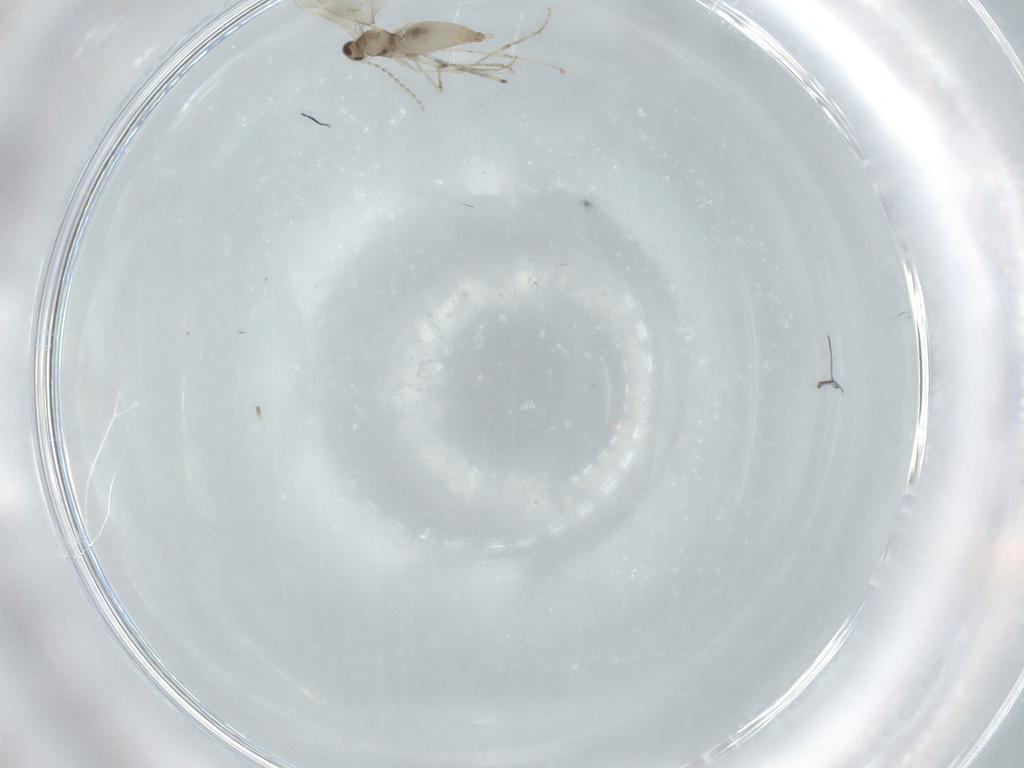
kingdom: Animalia
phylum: Arthropoda
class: Insecta
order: Diptera
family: Chironomidae
